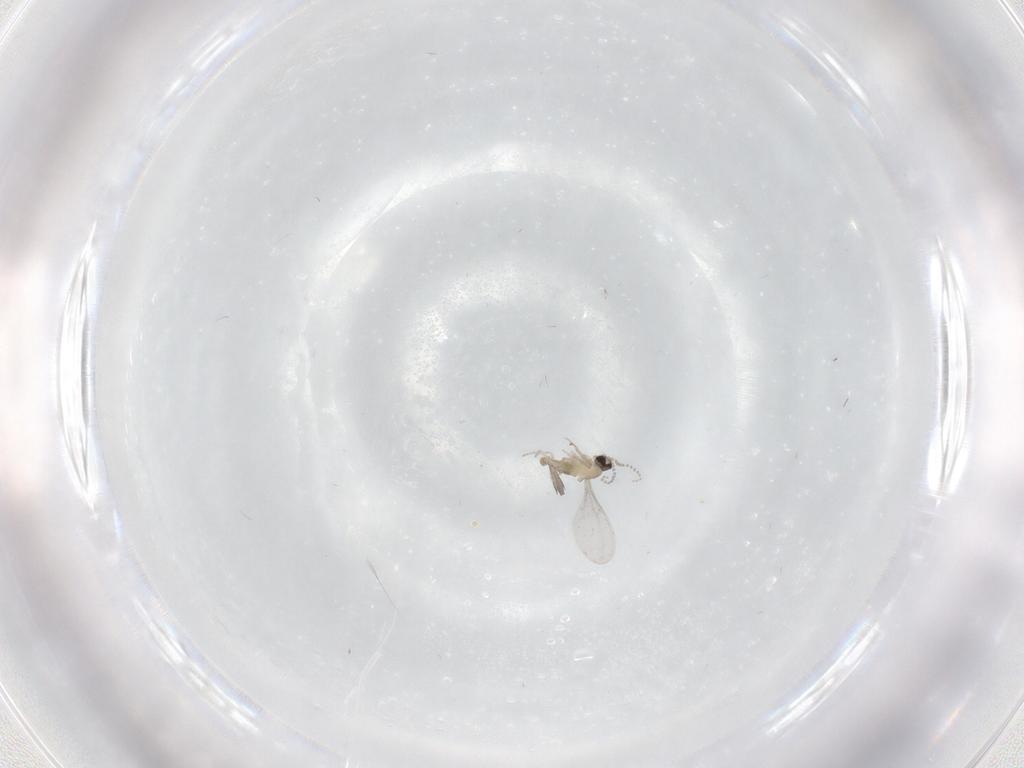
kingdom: Animalia
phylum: Arthropoda
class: Insecta
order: Diptera
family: Cecidomyiidae
